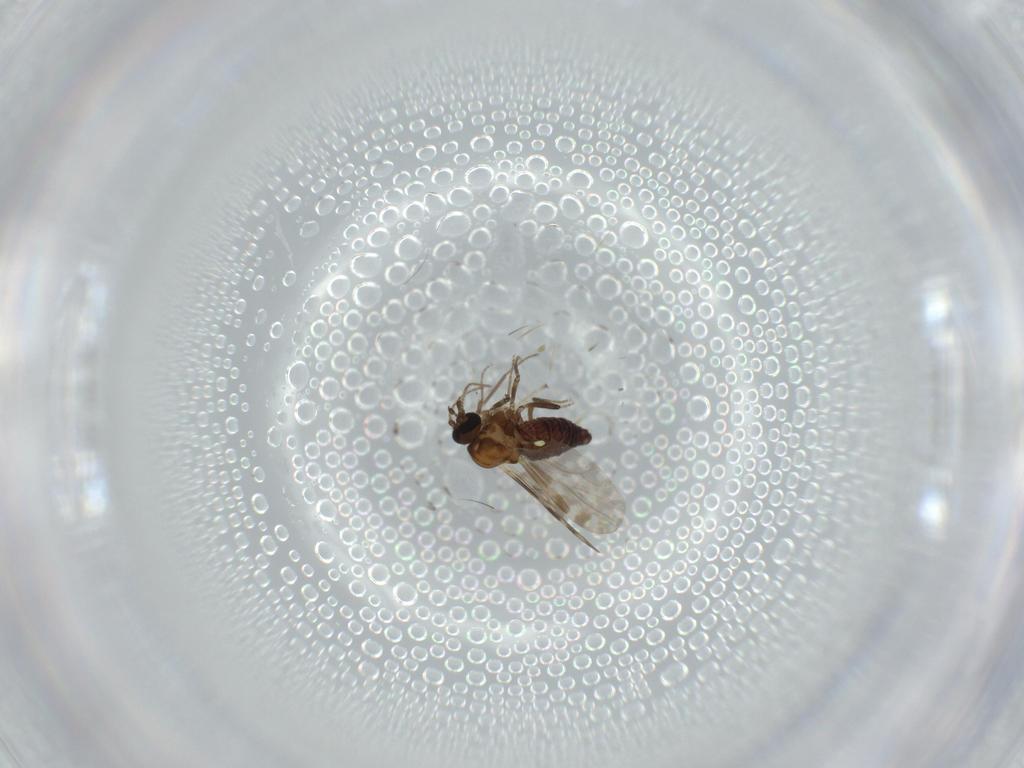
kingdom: Animalia
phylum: Arthropoda
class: Insecta
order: Diptera
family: Ceratopogonidae
